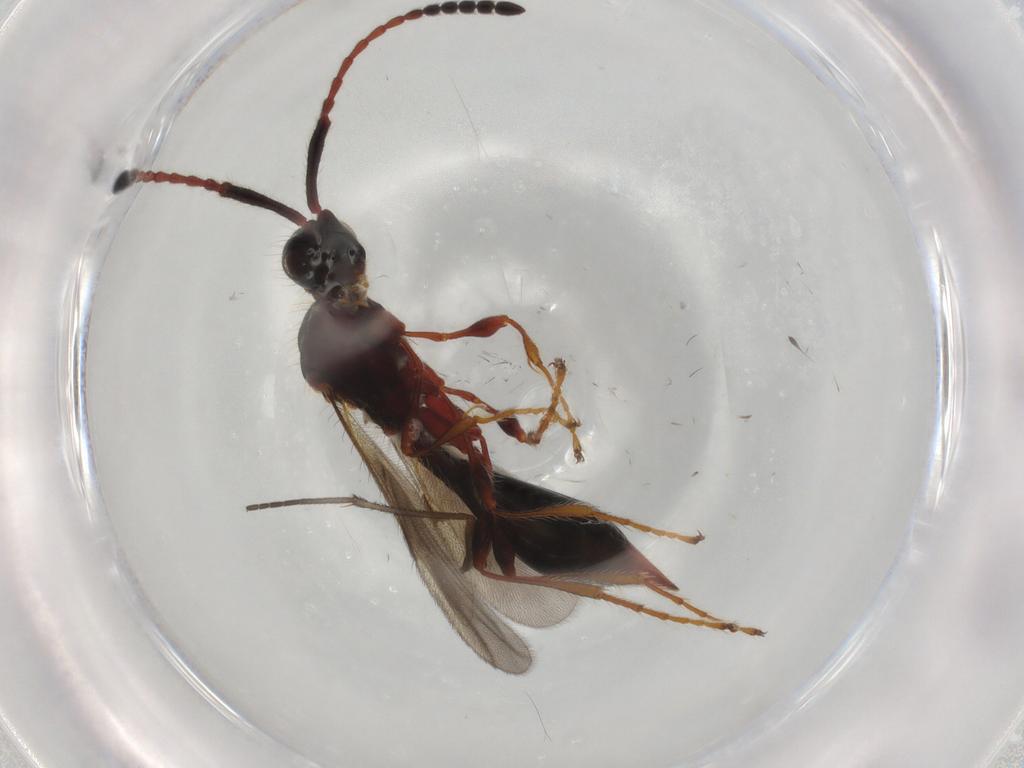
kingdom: Animalia
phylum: Arthropoda
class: Insecta
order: Hymenoptera
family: Diapriidae
